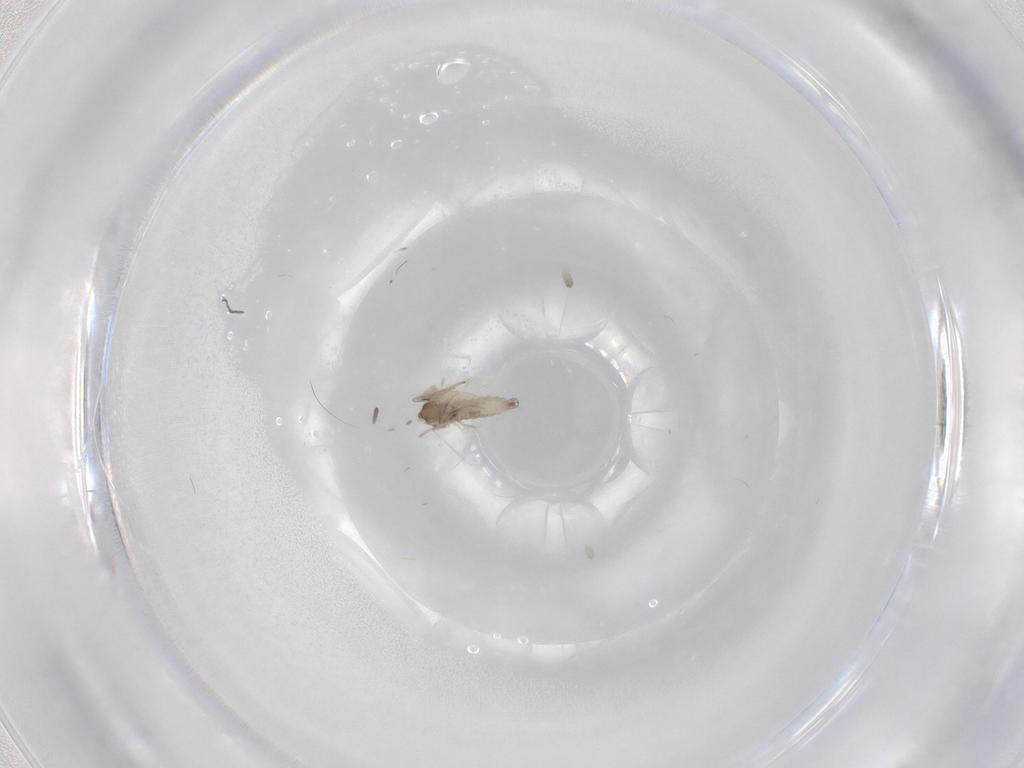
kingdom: Animalia
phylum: Arthropoda
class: Insecta
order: Diptera
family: Cecidomyiidae
